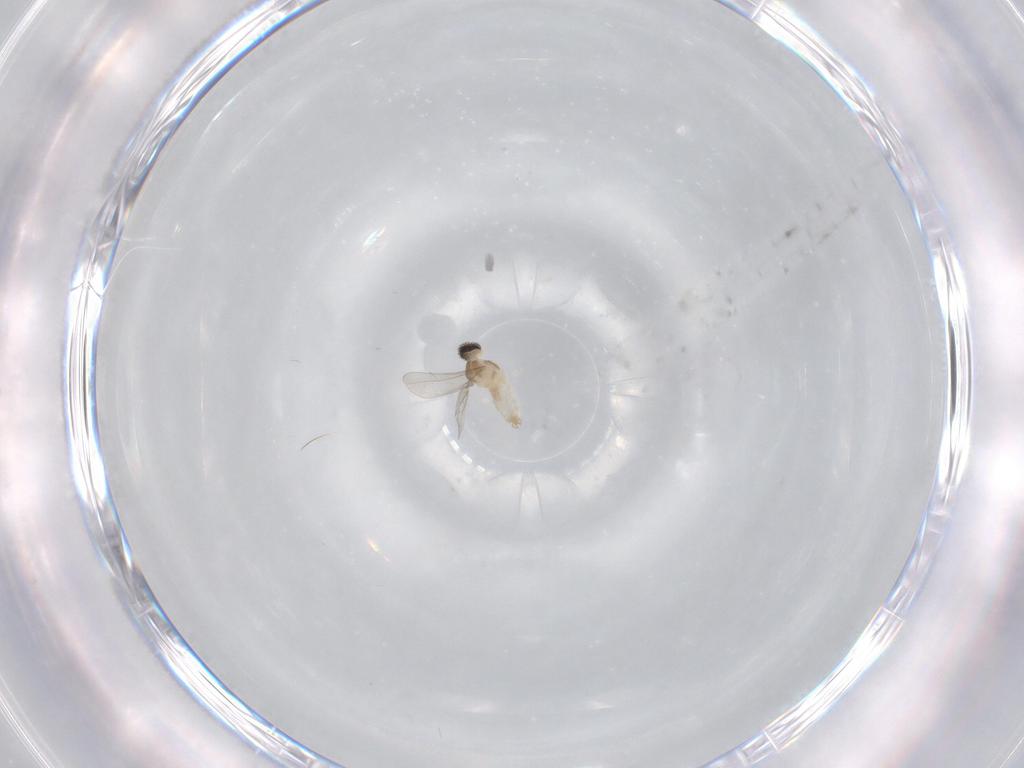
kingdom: Animalia
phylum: Arthropoda
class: Insecta
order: Diptera
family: Cecidomyiidae
